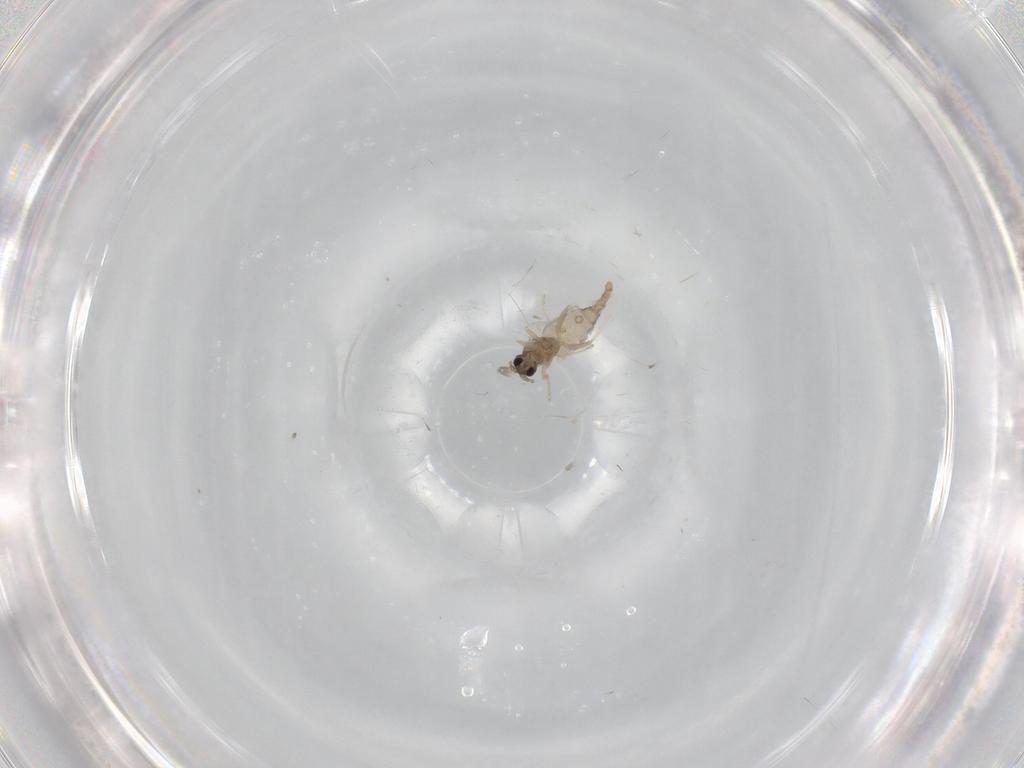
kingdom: Animalia
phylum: Arthropoda
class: Insecta
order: Diptera
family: Cecidomyiidae
